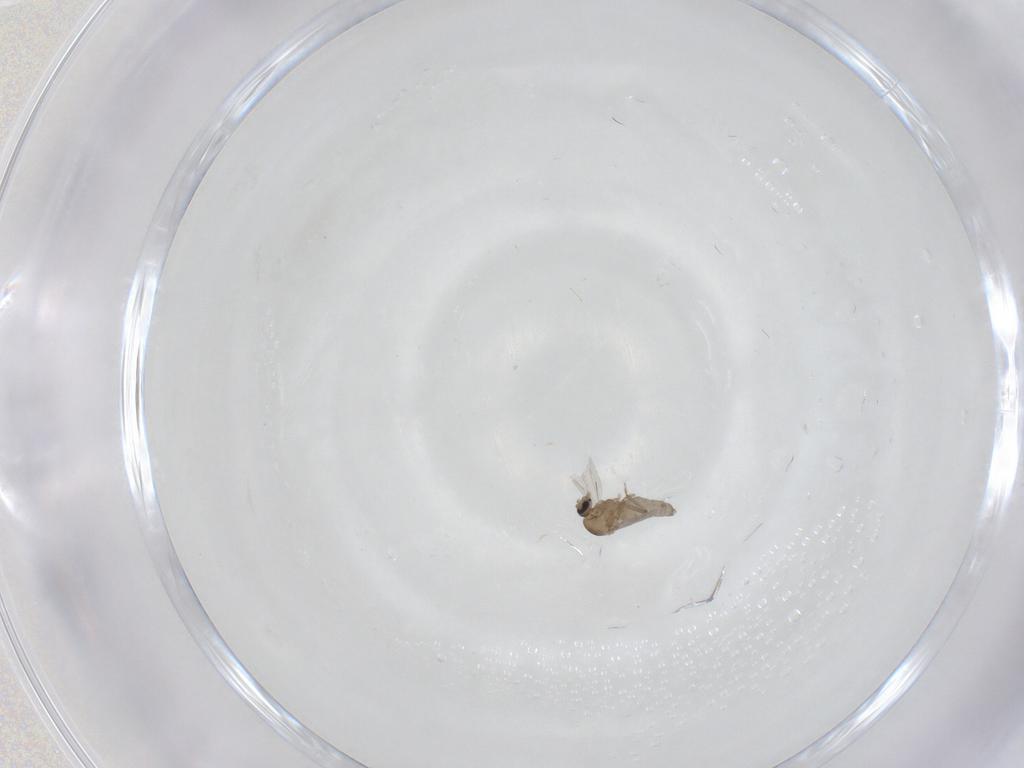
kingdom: Animalia
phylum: Arthropoda
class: Insecta
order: Diptera
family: Ceratopogonidae
